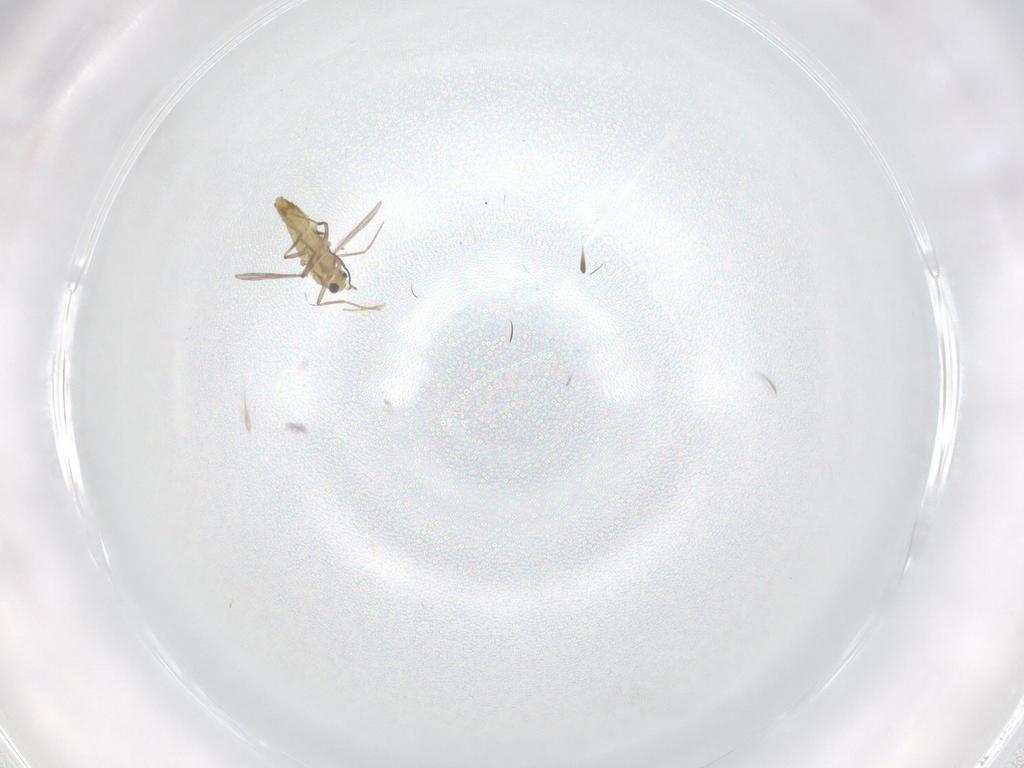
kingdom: Animalia
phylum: Arthropoda
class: Insecta
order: Diptera
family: Chironomidae
